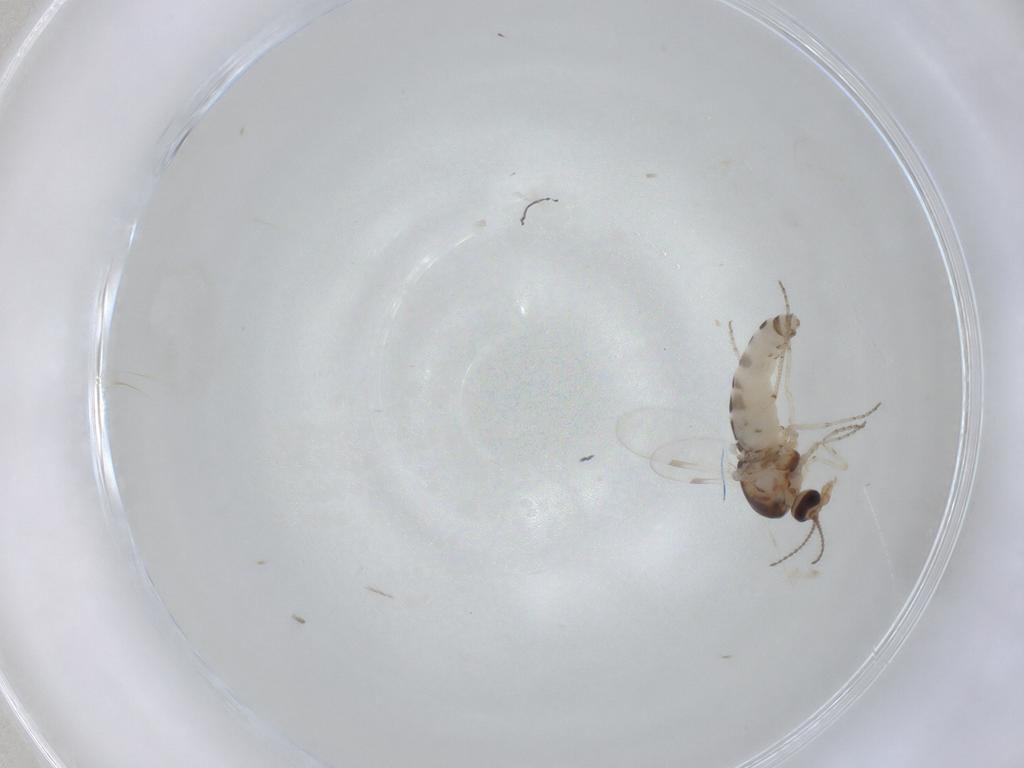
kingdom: Animalia
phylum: Arthropoda
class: Insecta
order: Diptera
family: Ceratopogonidae
